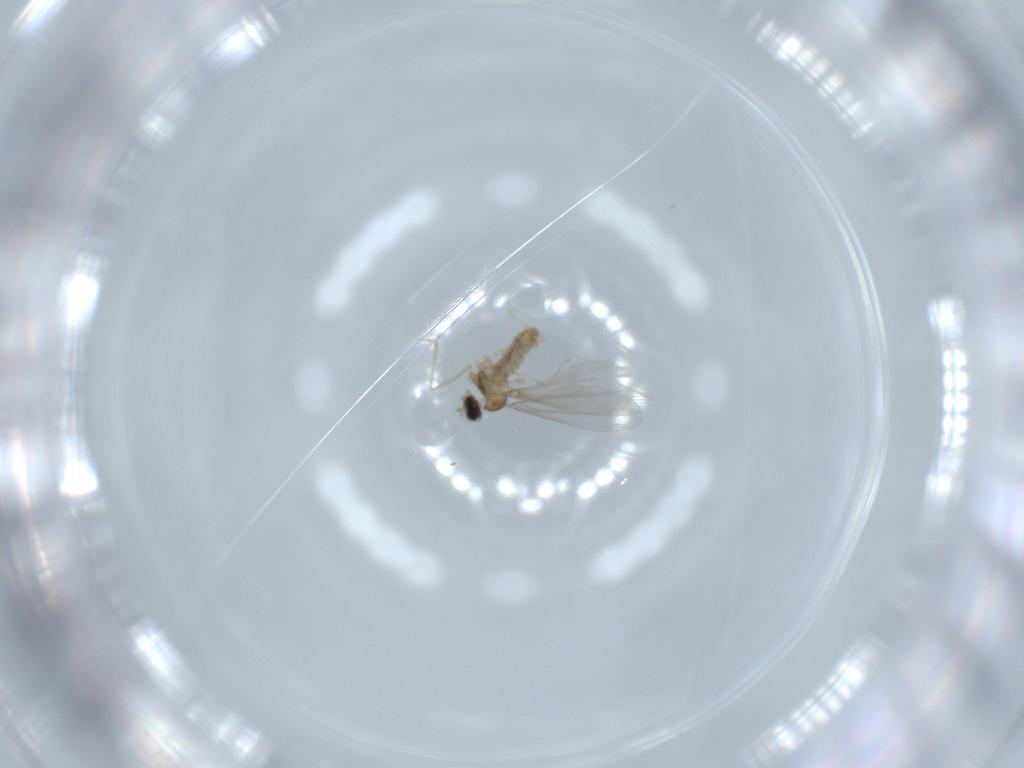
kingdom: Animalia
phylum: Arthropoda
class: Insecta
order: Diptera
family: Cecidomyiidae
